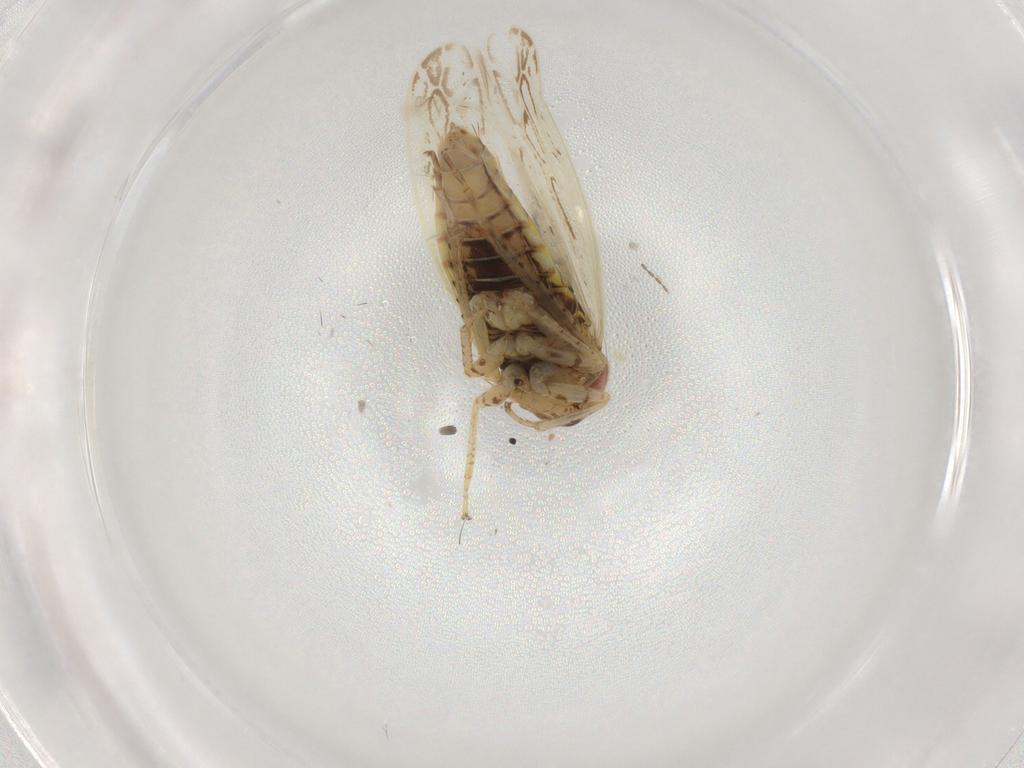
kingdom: Animalia
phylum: Arthropoda
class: Insecta
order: Hemiptera
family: Cicadellidae
